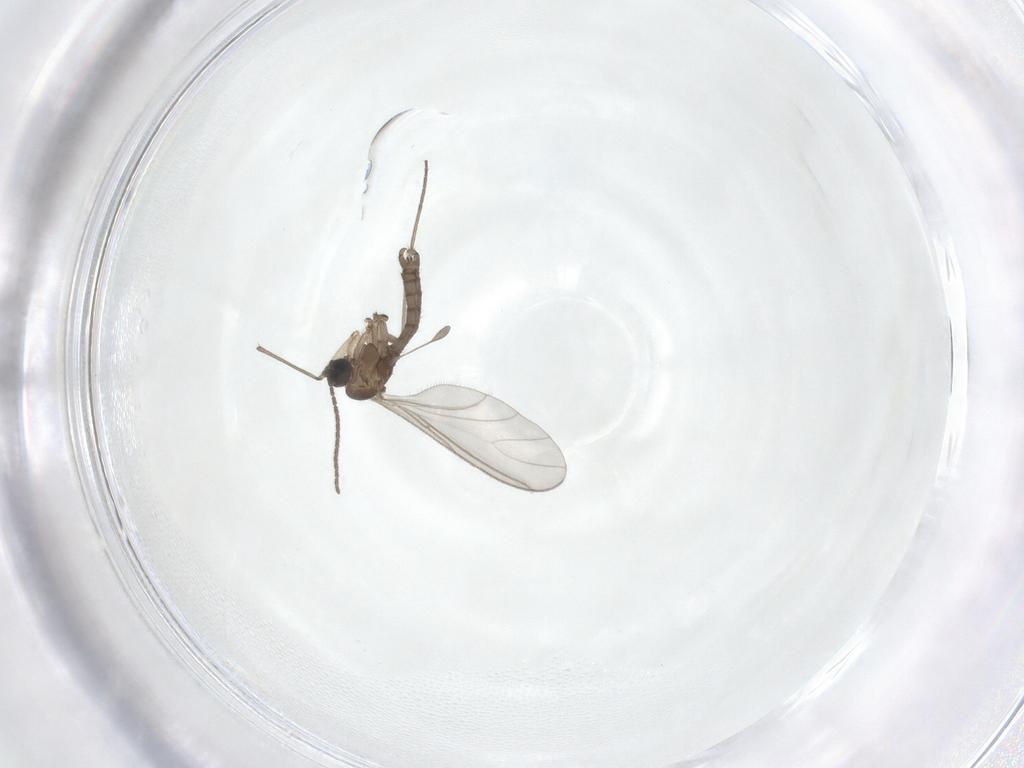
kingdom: Animalia
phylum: Arthropoda
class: Insecta
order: Diptera
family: Sciaridae
